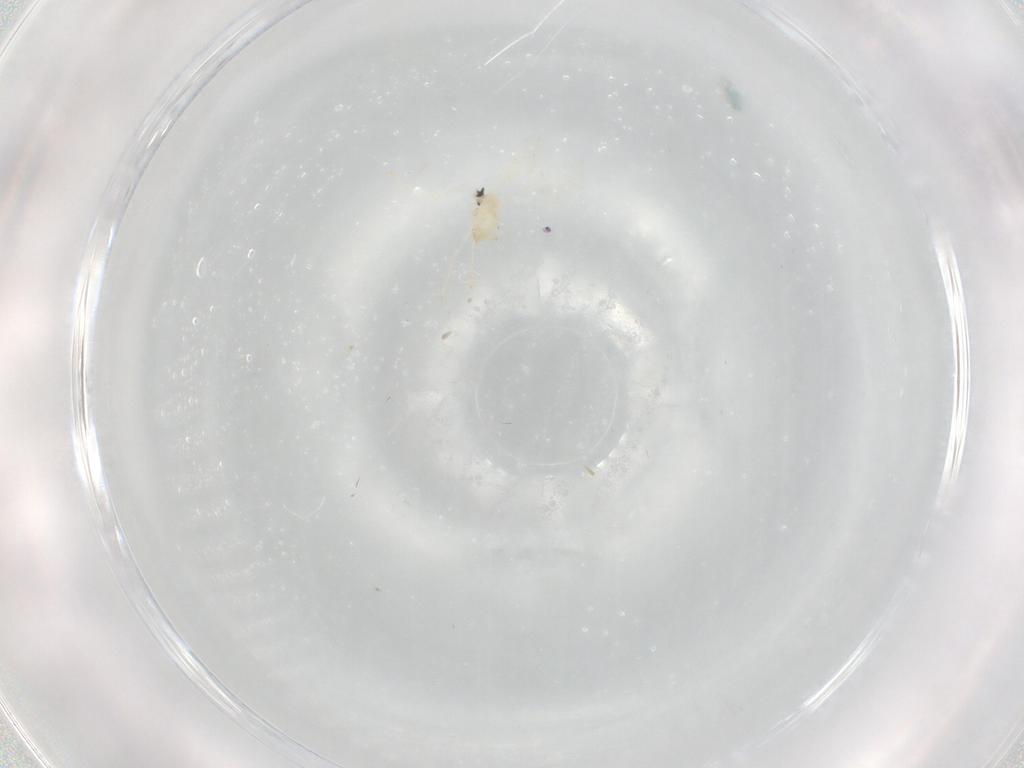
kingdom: Animalia
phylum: Arthropoda
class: Insecta
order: Diptera
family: Cecidomyiidae
